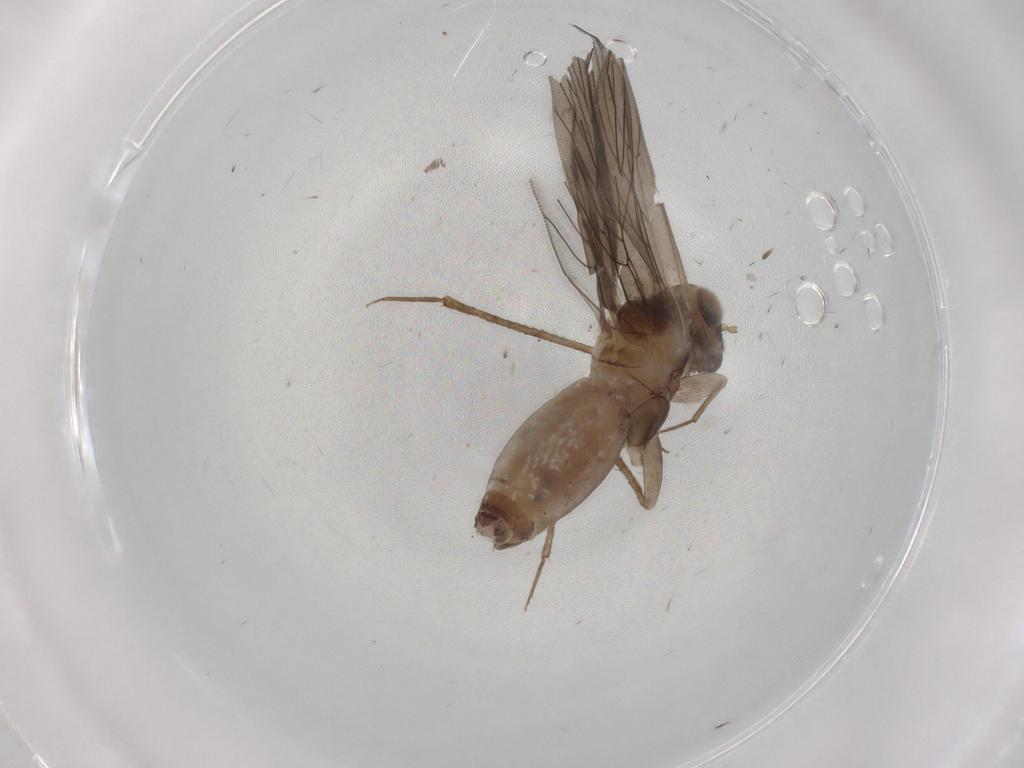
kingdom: Animalia
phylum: Arthropoda
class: Insecta
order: Psocodea
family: Lepidopsocidae
